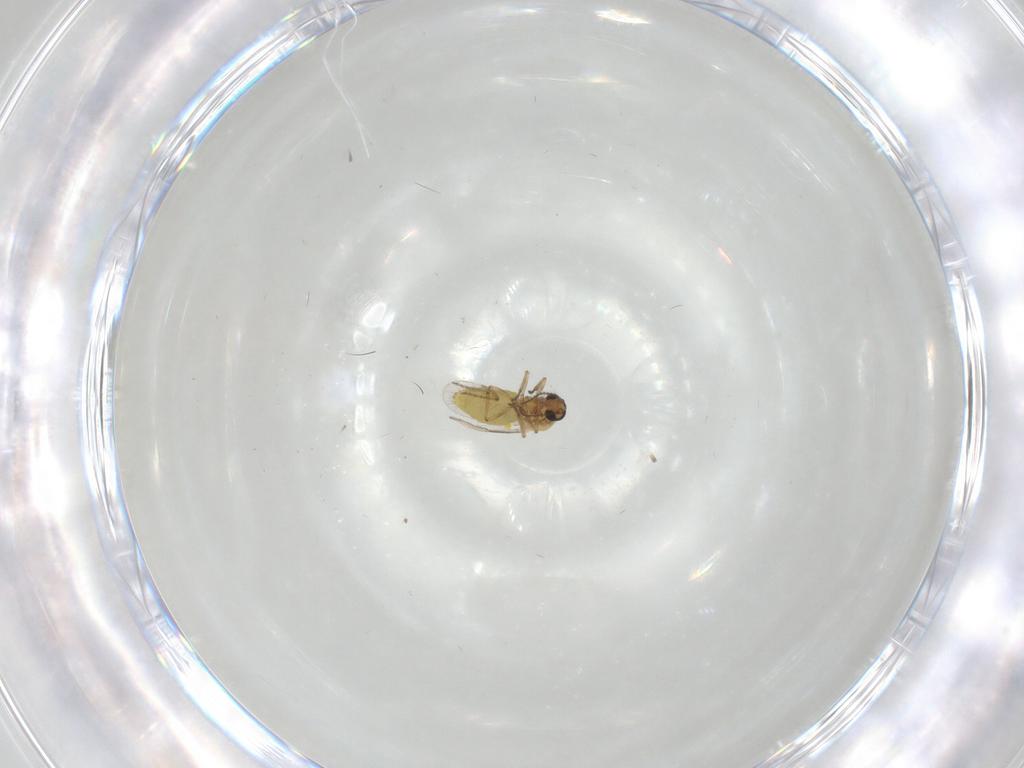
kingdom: Animalia
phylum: Arthropoda
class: Insecta
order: Diptera
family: Ceratopogonidae
